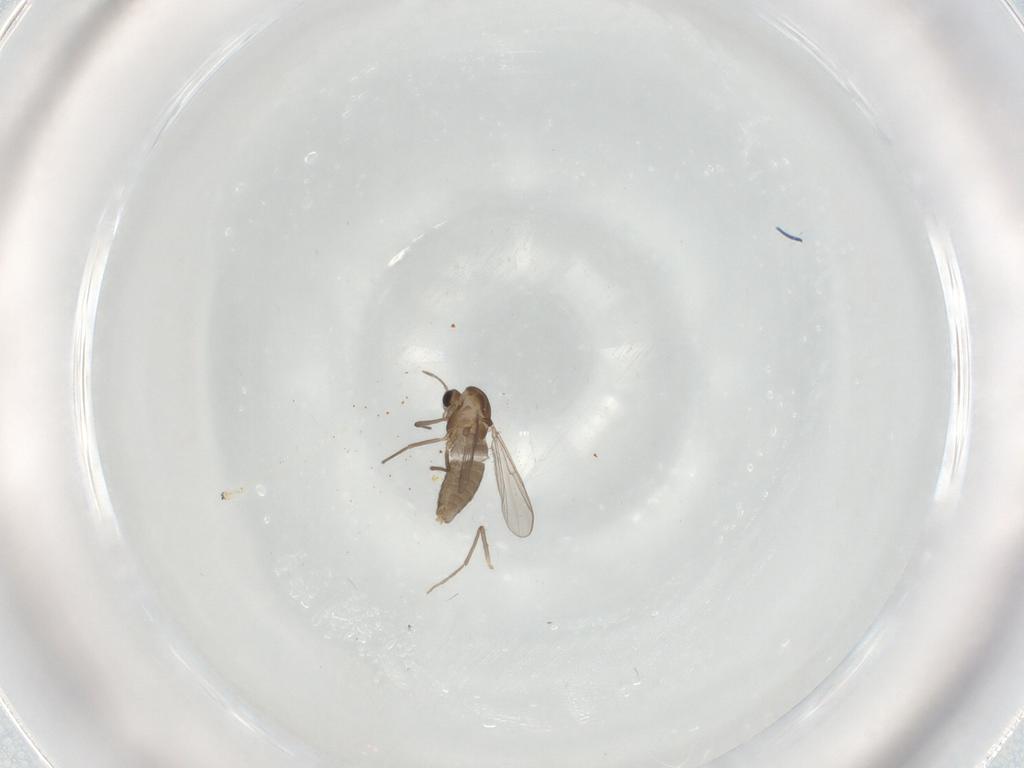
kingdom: Animalia
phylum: Arthropoda
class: Insecta
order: Diptera
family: Chironomidae
